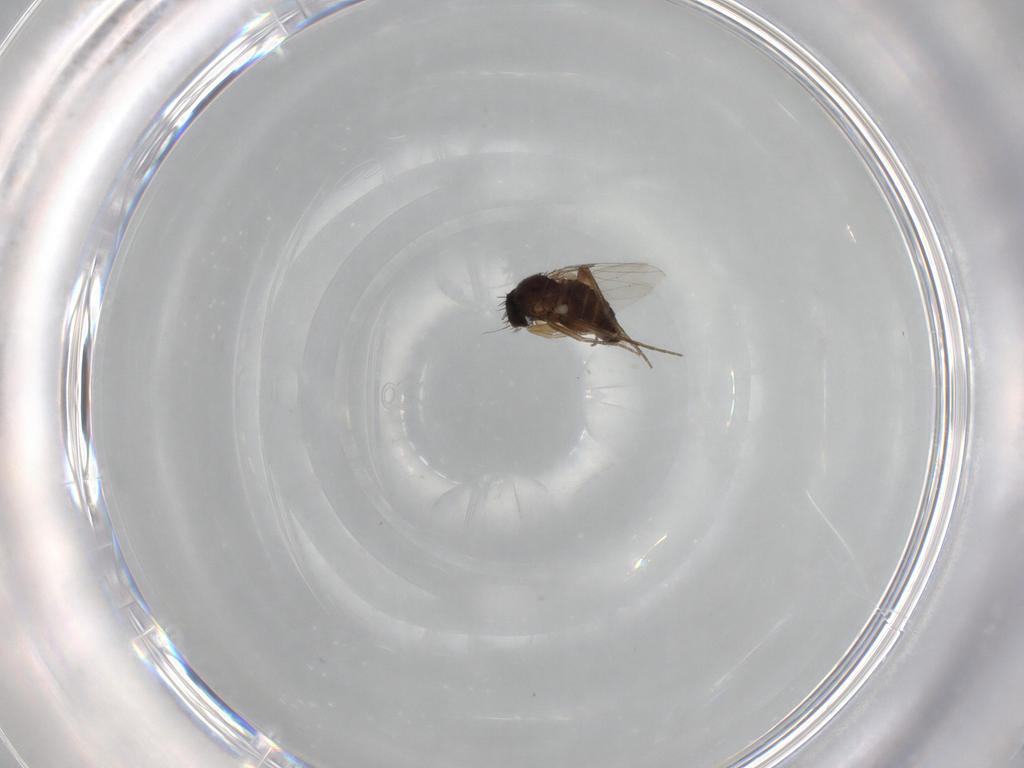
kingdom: Animalia
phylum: Arthropoda
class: Insecta
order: Diptera
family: Phoridae
